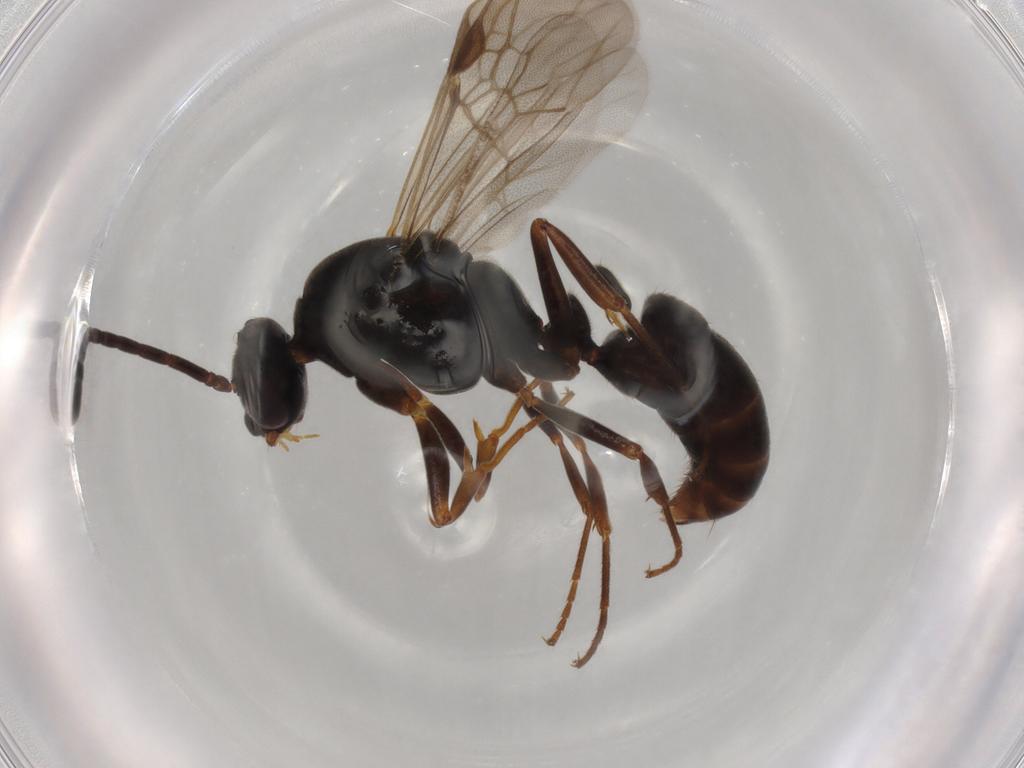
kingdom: Animalia
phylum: Arthropoda
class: Insecta
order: Hymenoptera
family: Formicidae
